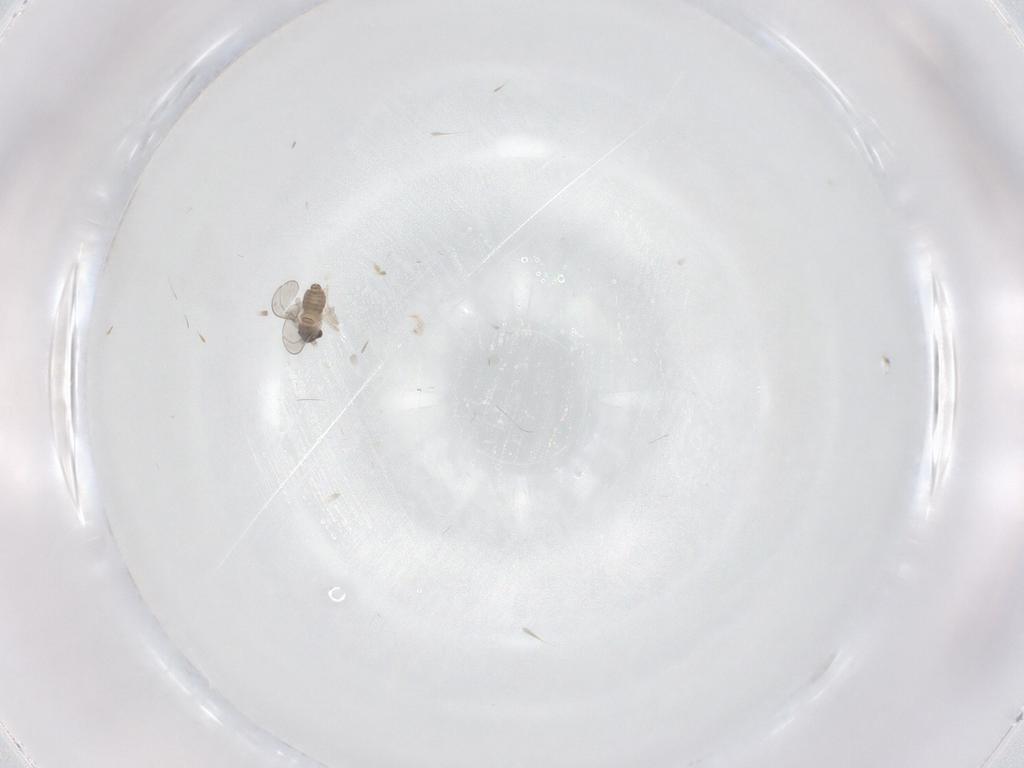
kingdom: Animalia
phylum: Arthropoda
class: Insecta
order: Diptera
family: Cecidomyiidae
